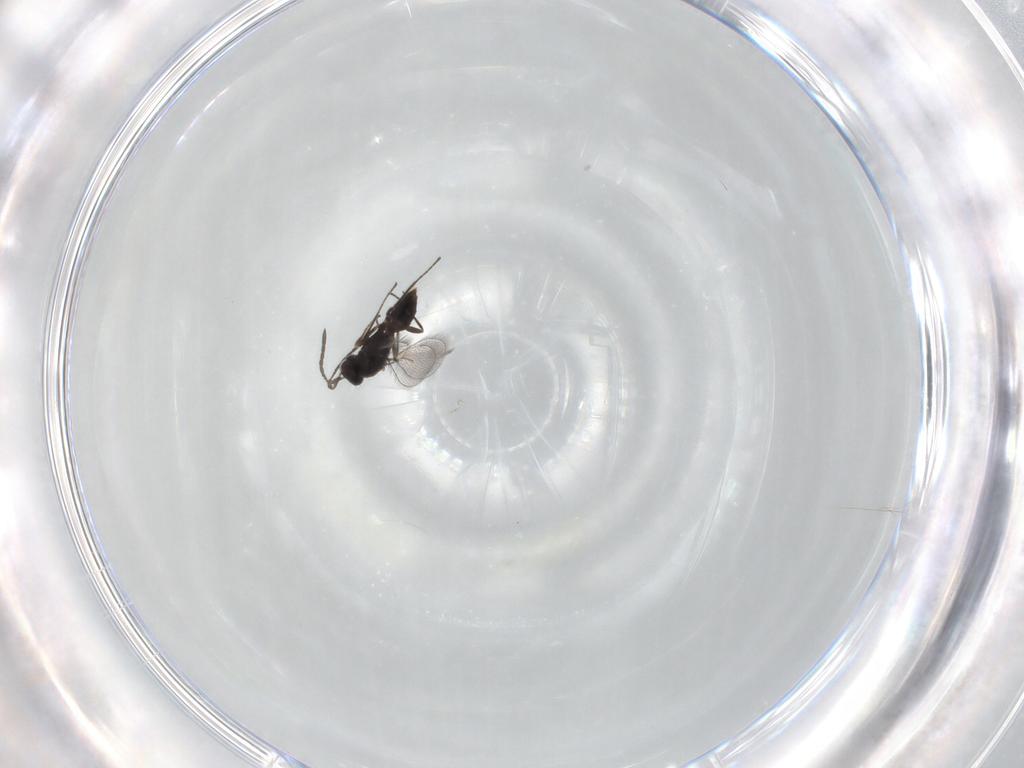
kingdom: Animalia
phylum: Arthropoda
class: Insecta
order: Hymenoptera
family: Mymaridae
